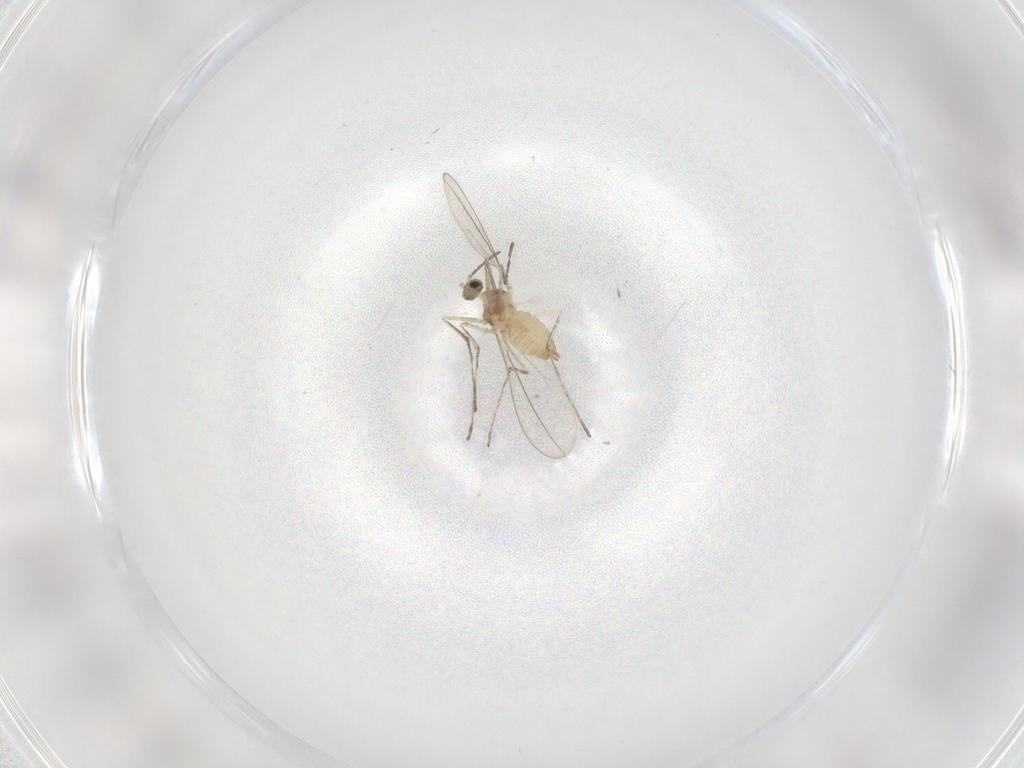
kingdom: Animalia
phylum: Arthropoda
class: Insecta
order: Diptera
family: Cecidomyiidae
